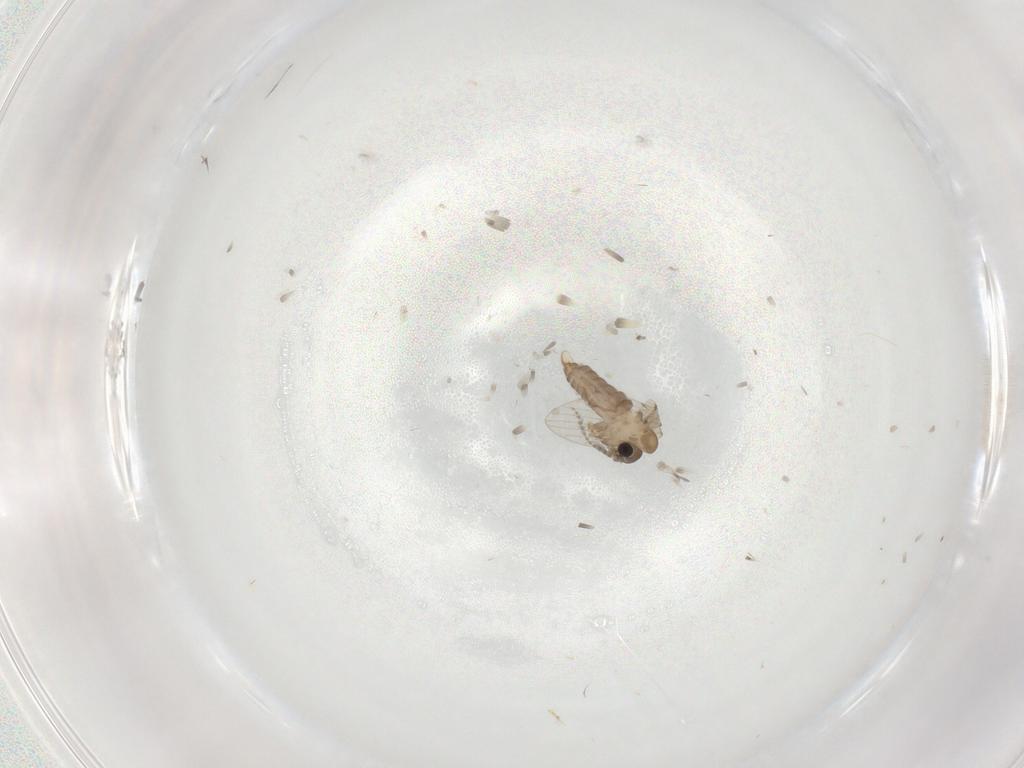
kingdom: Animalia
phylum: Arthropoda
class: Insecta
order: Diptera
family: Psychodidae
